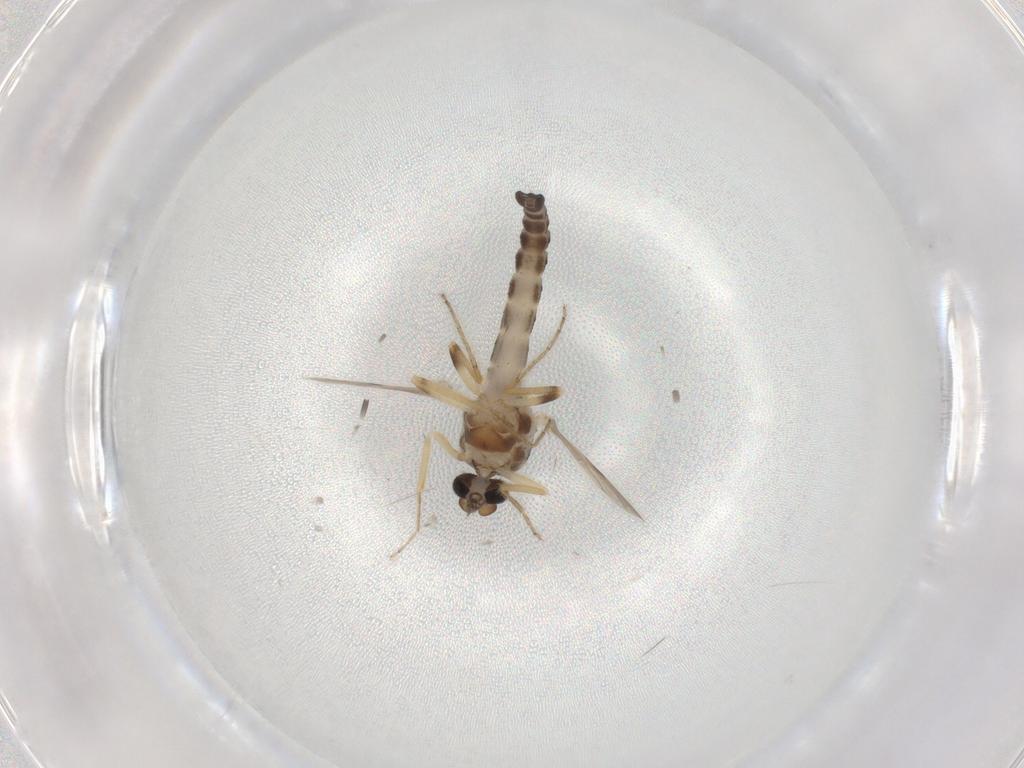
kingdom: Animalia
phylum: Arthropoda
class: Insecta
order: Diptera
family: Ceratopogonidae
